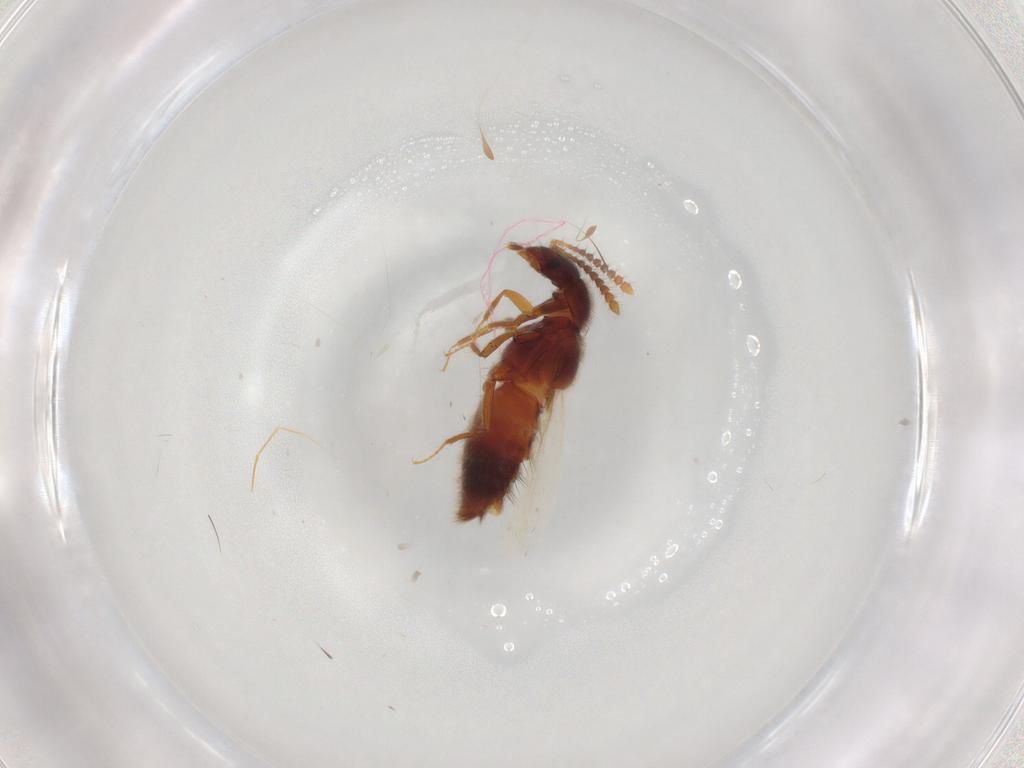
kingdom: Animalia
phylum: Arthropoda
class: Insecta
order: Coleoptera
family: Staphylinidae
